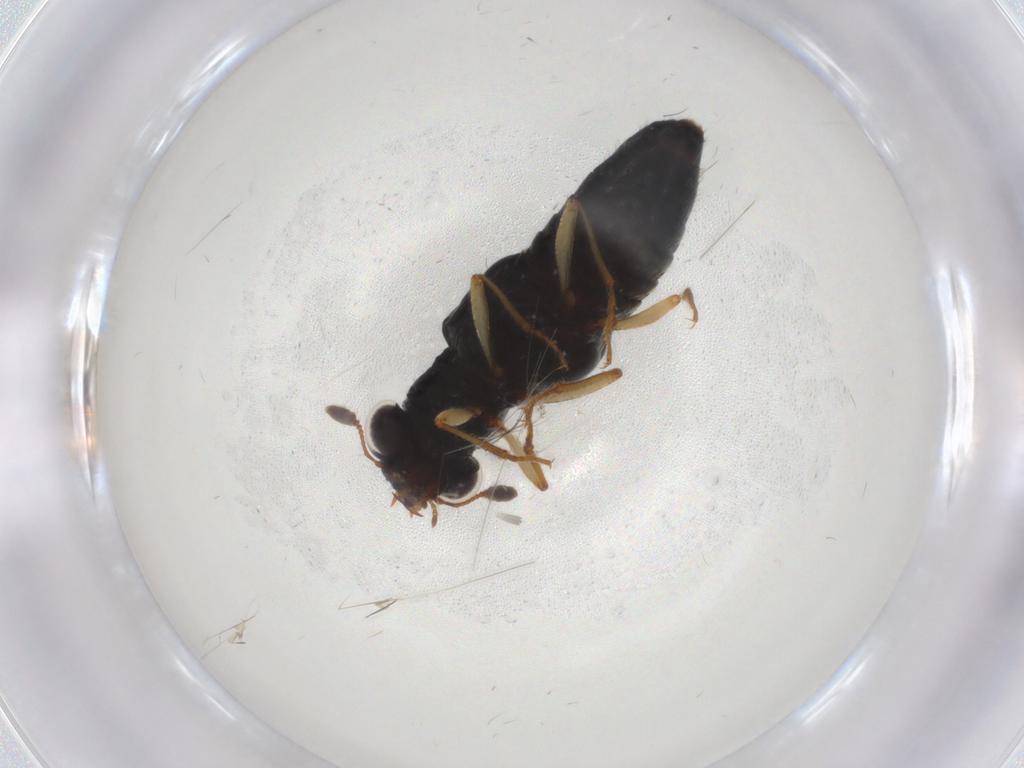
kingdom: Animalia
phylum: Arthropoda
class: Insecta
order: Coleoptera
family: Staphylinidae
